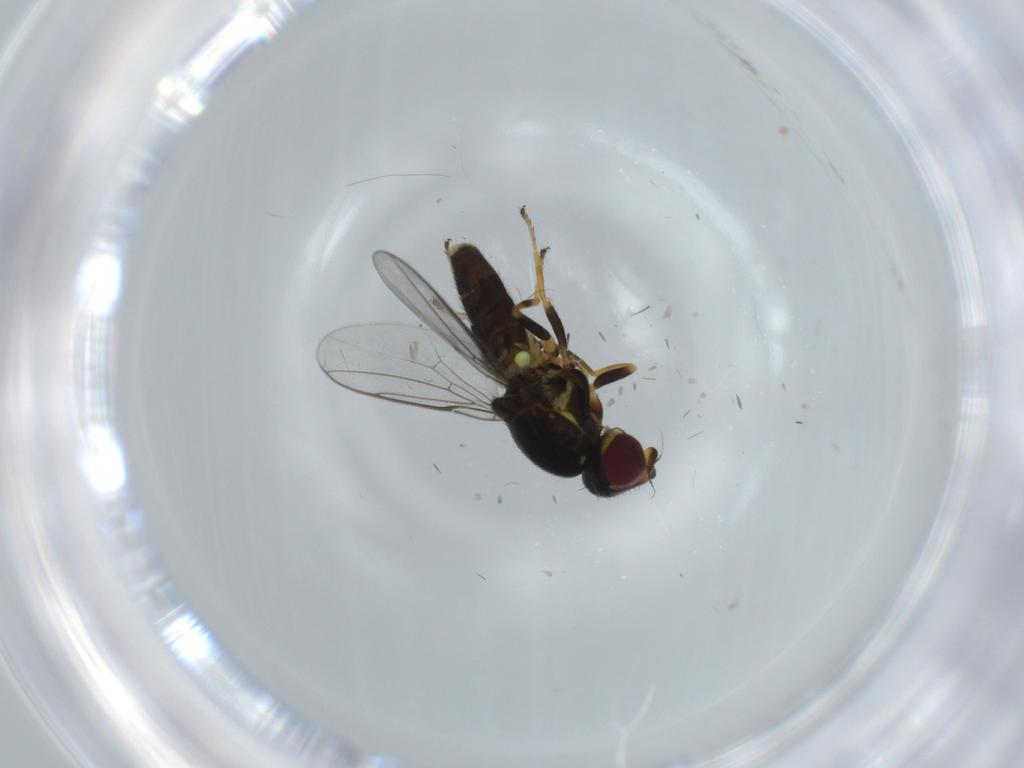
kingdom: Animalia
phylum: Arthropoda
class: Insecta
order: Diptera
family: Chloropidae
